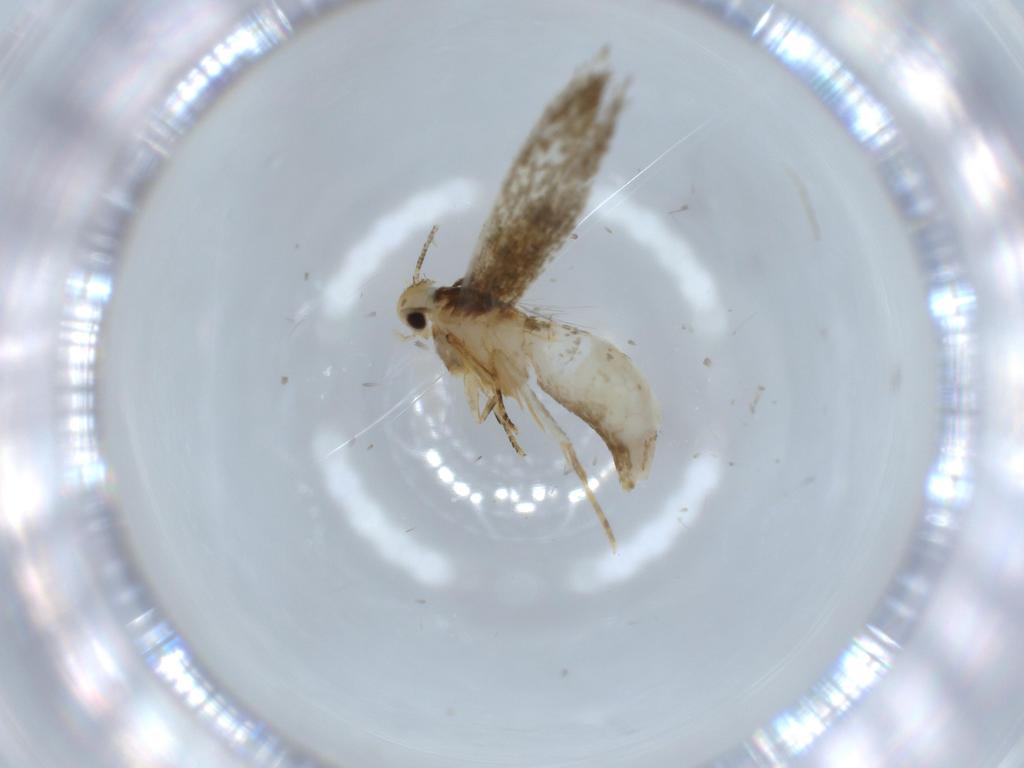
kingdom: Animalia
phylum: Arthropoda
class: Insecta
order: Lepidoptera
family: Tineidae
